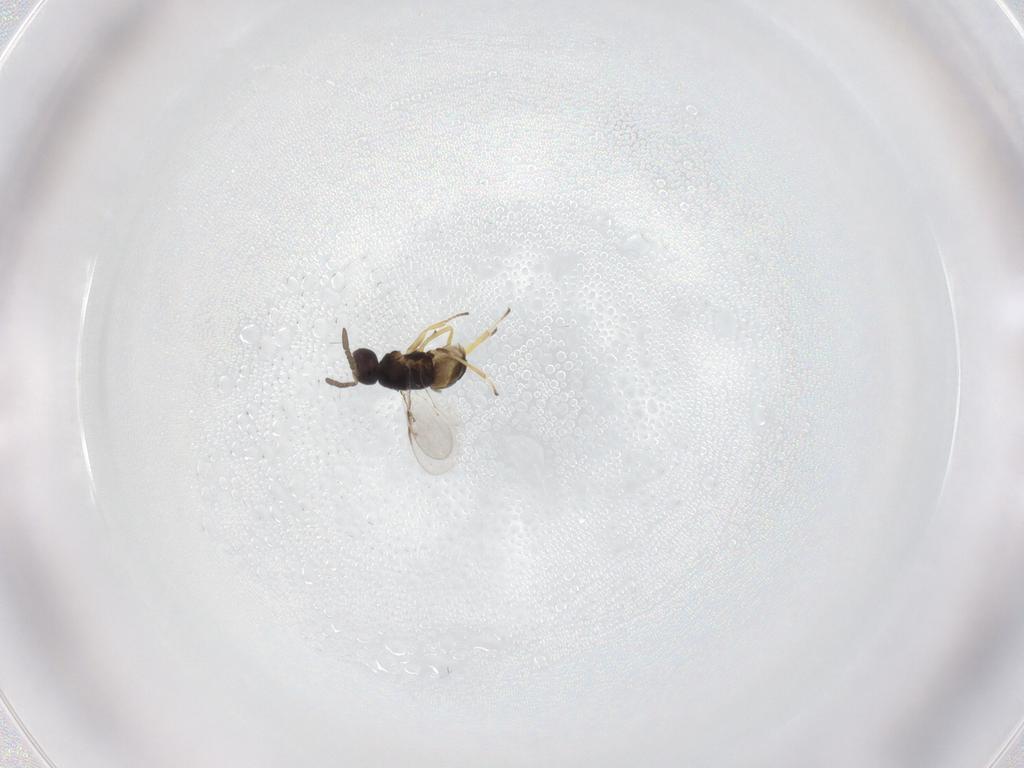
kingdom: Animalia
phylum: Arthropoda
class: Insecta
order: Hymenoptera
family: Encyrtidae
